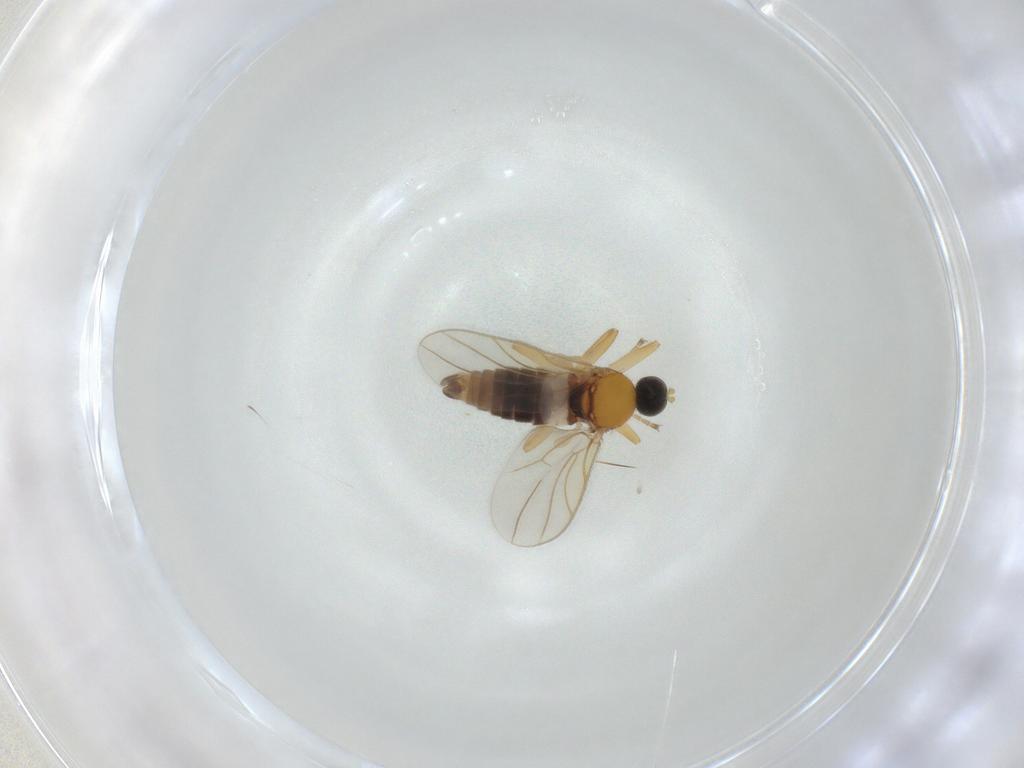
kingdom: Animalia
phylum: Arthropoda
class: Insecta
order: Diptera
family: Hybotidae
